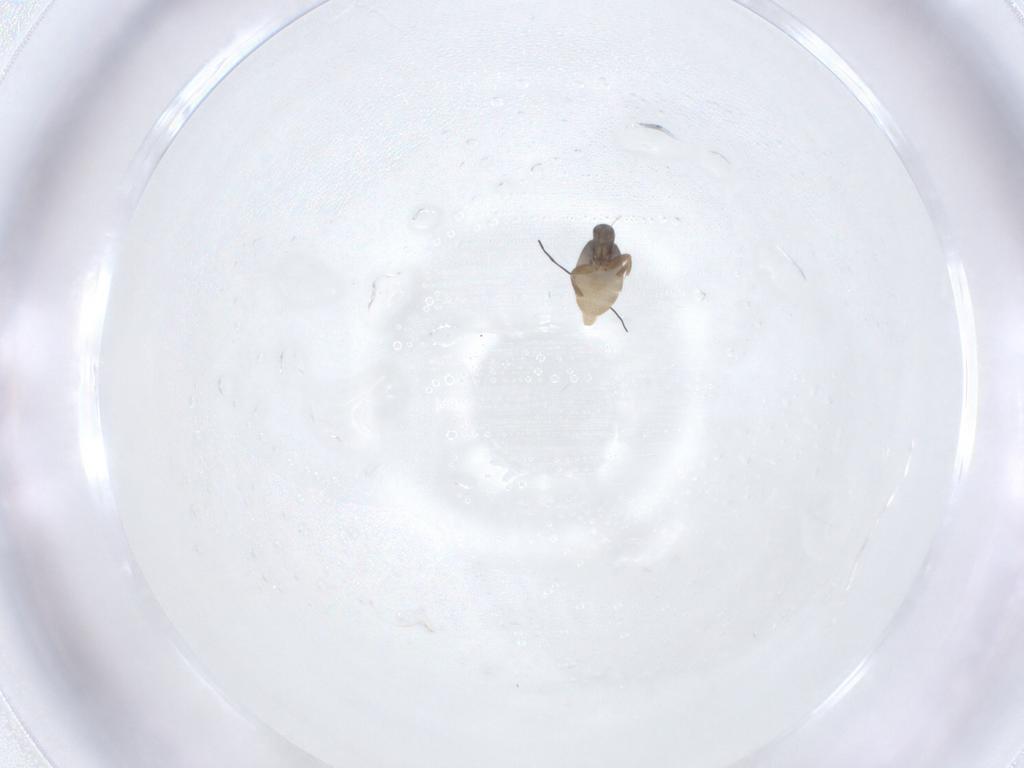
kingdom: Animalia
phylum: Arthropoda
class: Insecta
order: Diptera
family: Phoridae
